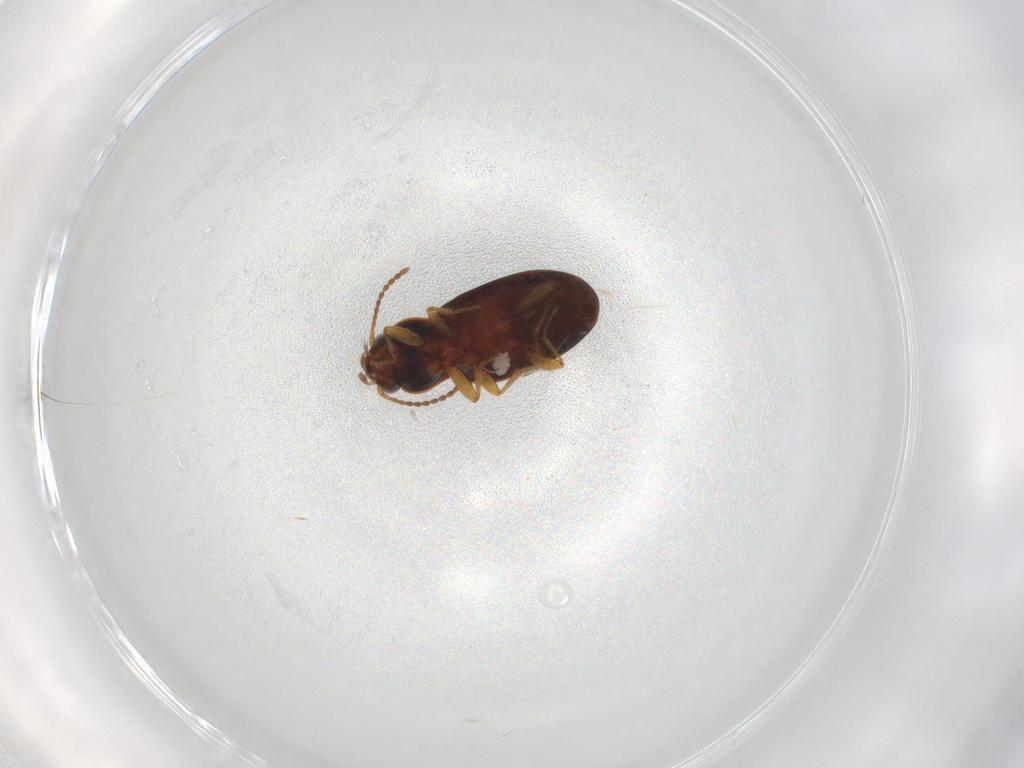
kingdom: Animalia
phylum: Arthropoda
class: Insecta
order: Coleoptera
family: Carabidae
